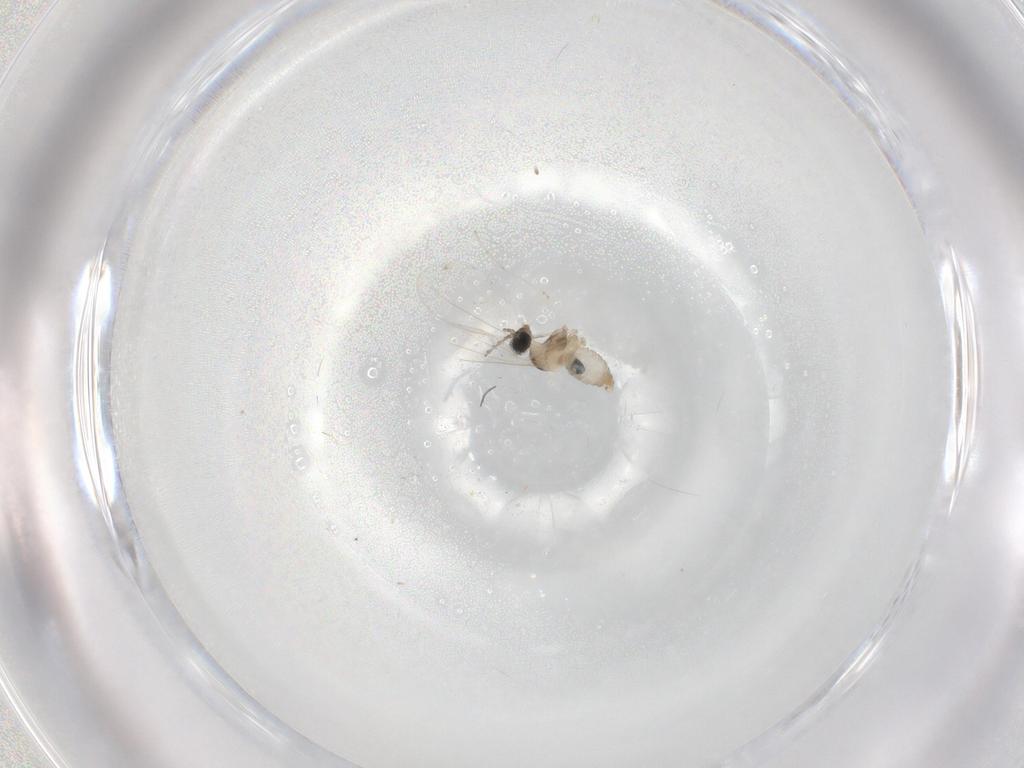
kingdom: Animalia
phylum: Arthropoda
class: Insecta
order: Diptera
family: Cecidomyiidae
